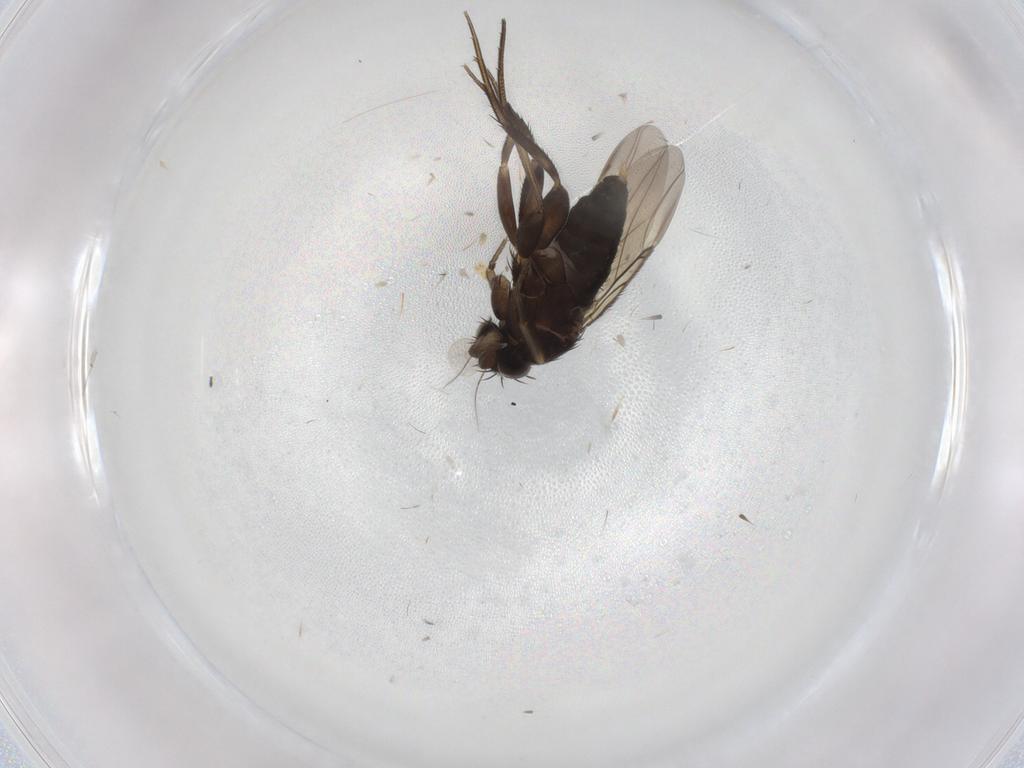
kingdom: Animalia
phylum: Arthropoda
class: Insecta
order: Diptera
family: Phoridae
